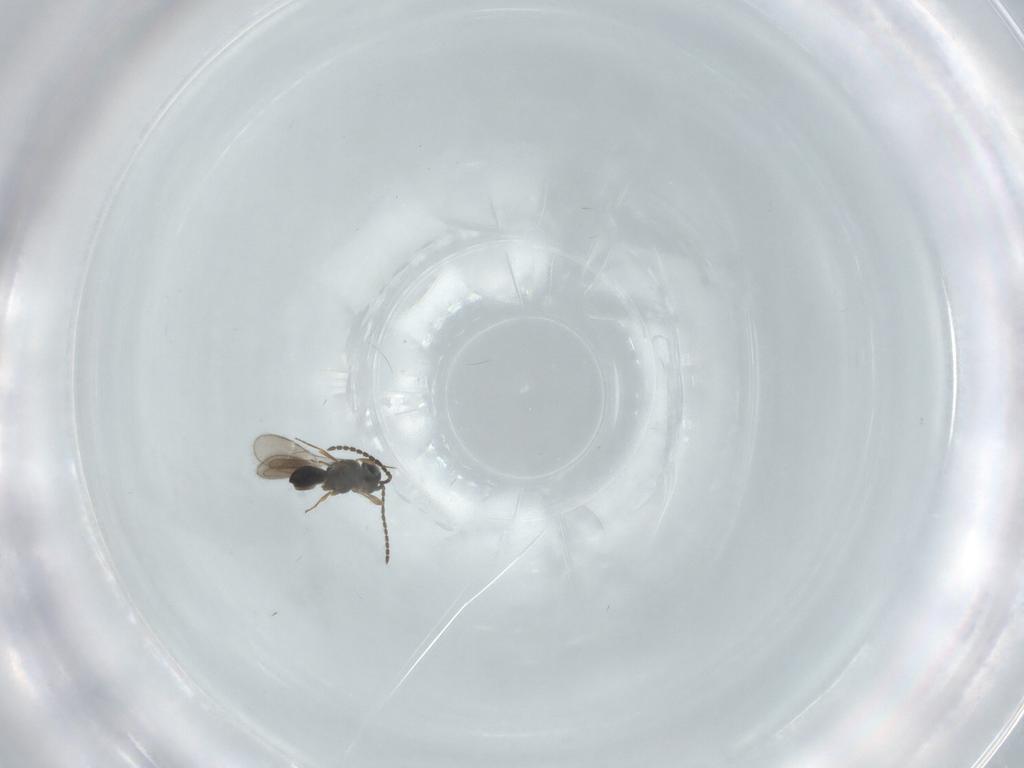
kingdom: Animalia
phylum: Arthropoda
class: Insecta
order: Hymenoptera
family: Scelionidae
